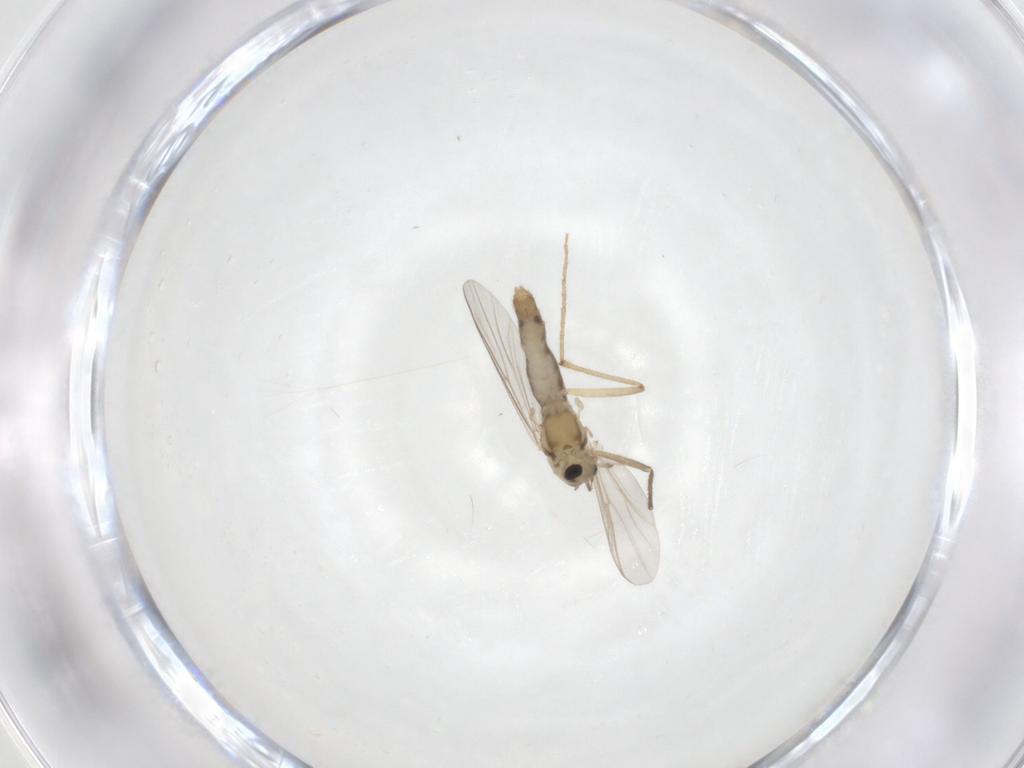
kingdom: Animalia
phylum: Arthropoda
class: Insecta
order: Diptera
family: Chironomidae
